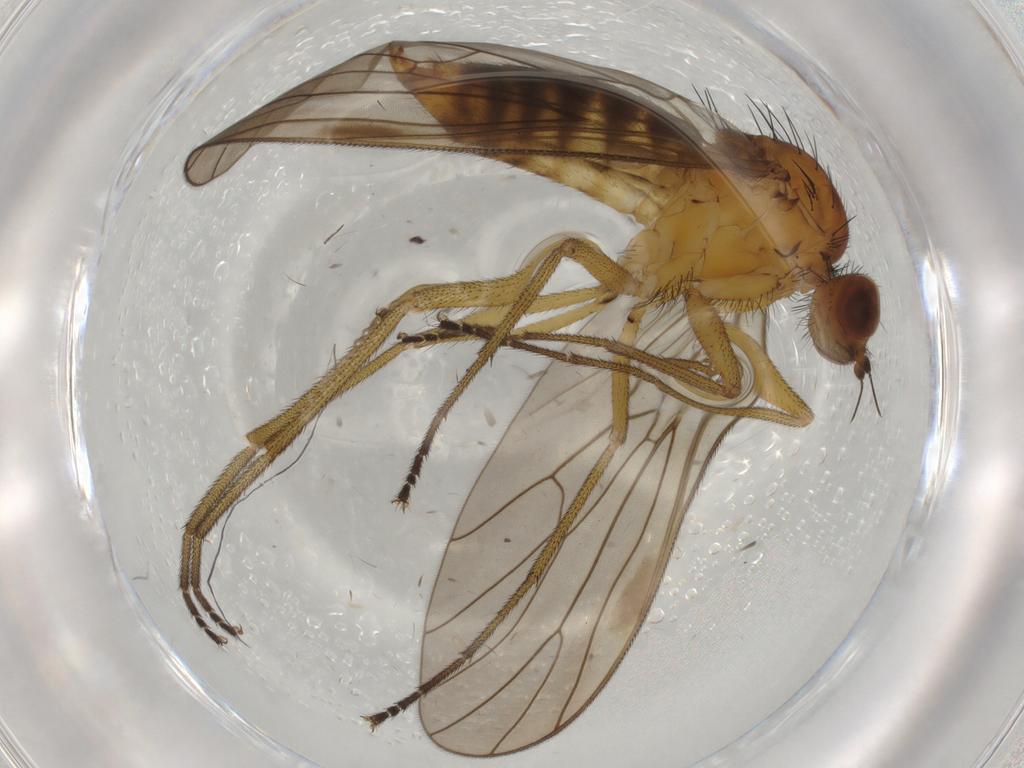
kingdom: Animalia
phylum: Arthropoda
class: Insecta
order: Diptera
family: Brachystomatidae
